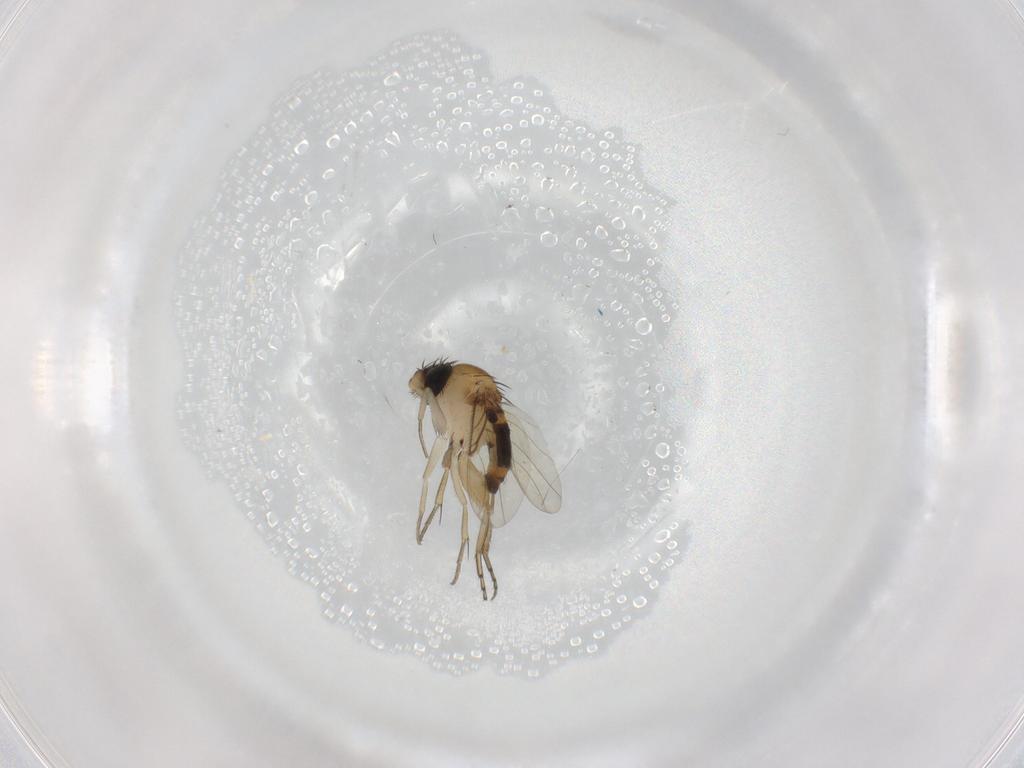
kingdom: Animalia
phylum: Arthropoda
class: Insecta
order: Diptera
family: Phoridae
